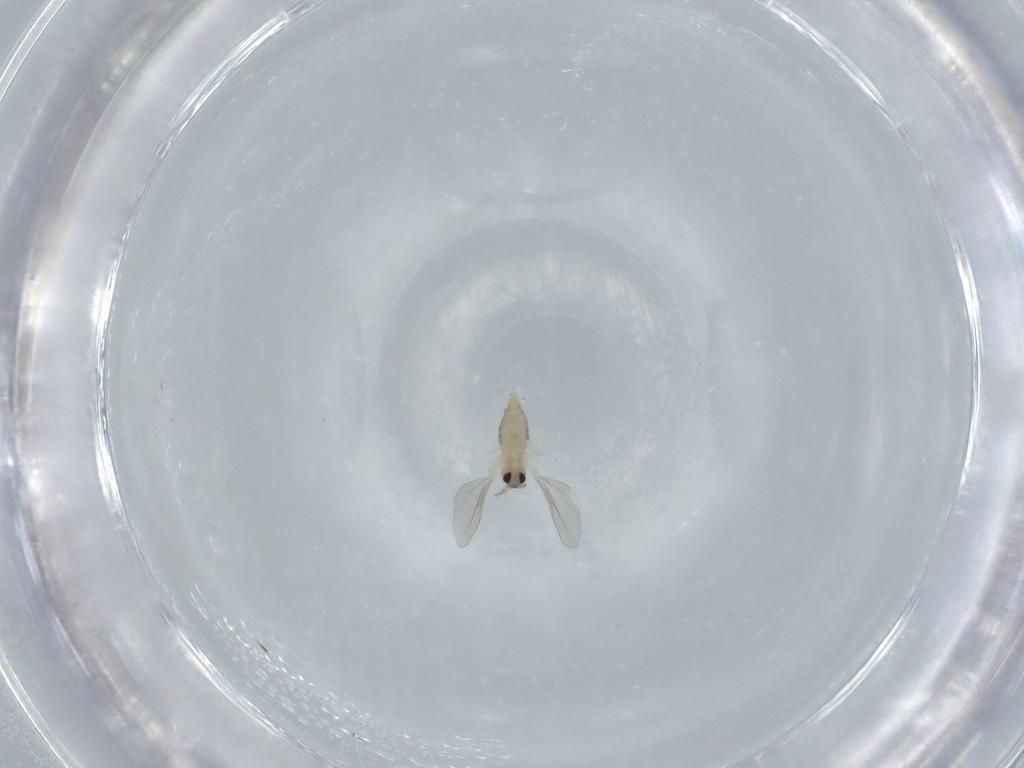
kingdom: Animalia
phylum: Arthropoda
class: Insecta
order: Diptera
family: Cecidomyiidae
